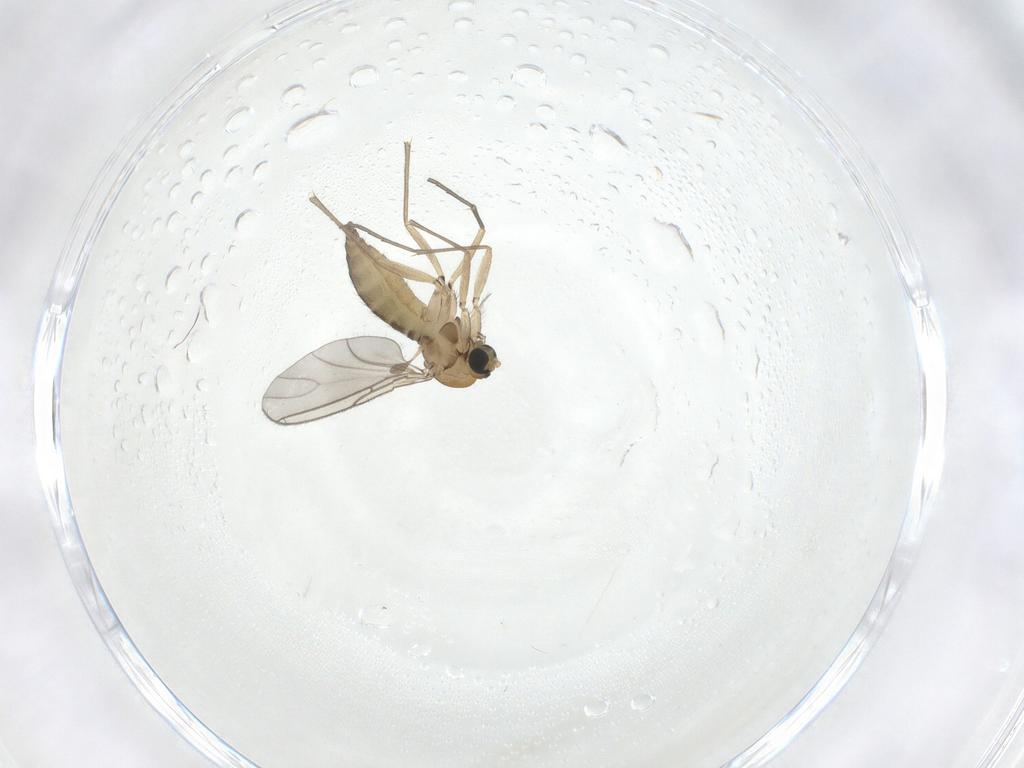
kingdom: Animalia
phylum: Arthropoda
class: Insecta
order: Diptera
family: Sciaridae
